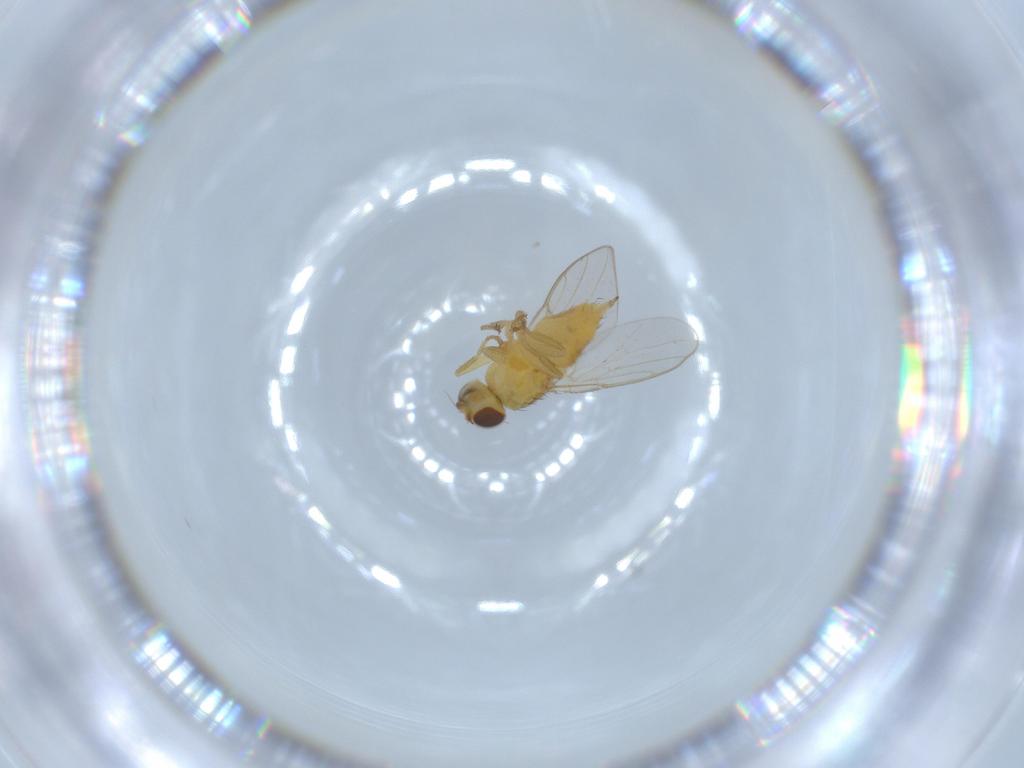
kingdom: Animalia
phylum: Arthropoda
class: Insecta
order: Diptera
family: Chloropidae
